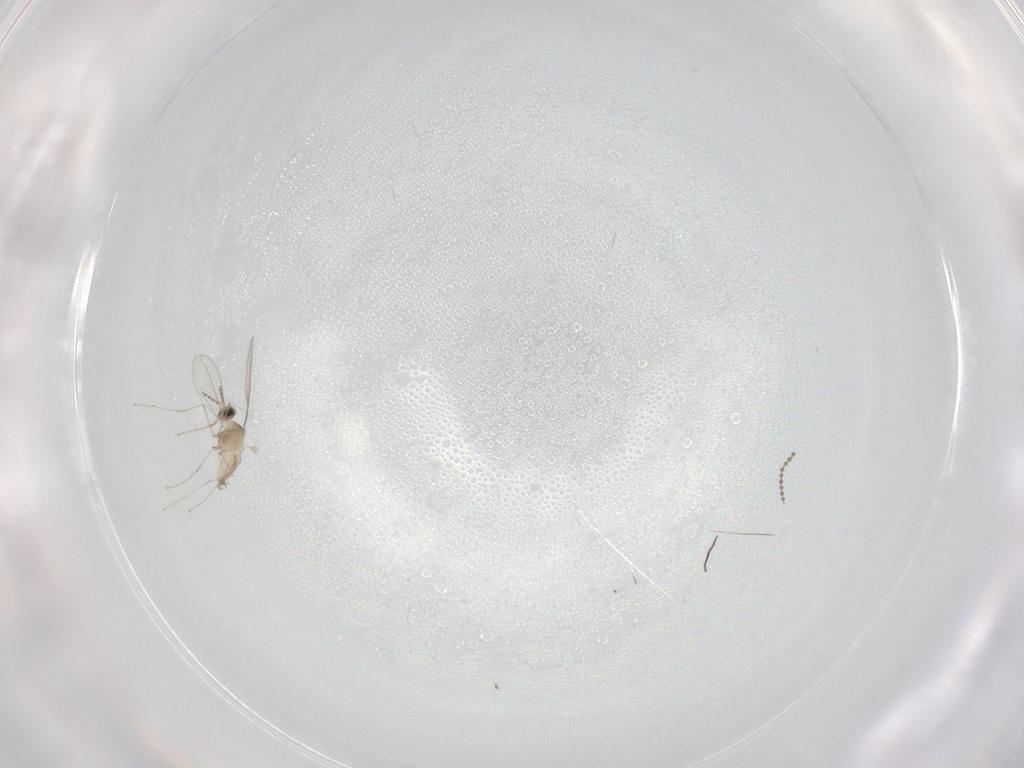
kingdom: Animalia
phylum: Arthropoda
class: Insecta
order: Diptera
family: Cecidomyiidae
